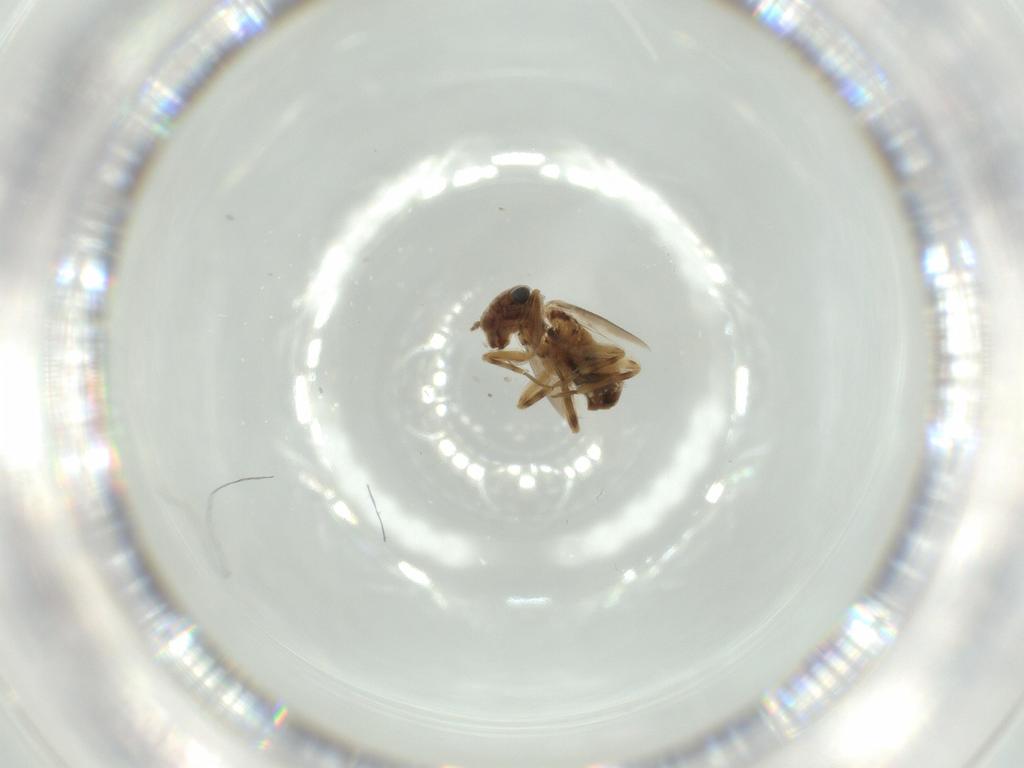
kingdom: Animalia
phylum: Arthropoda
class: Insecta
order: Psocodea
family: Lepidopsocidae
